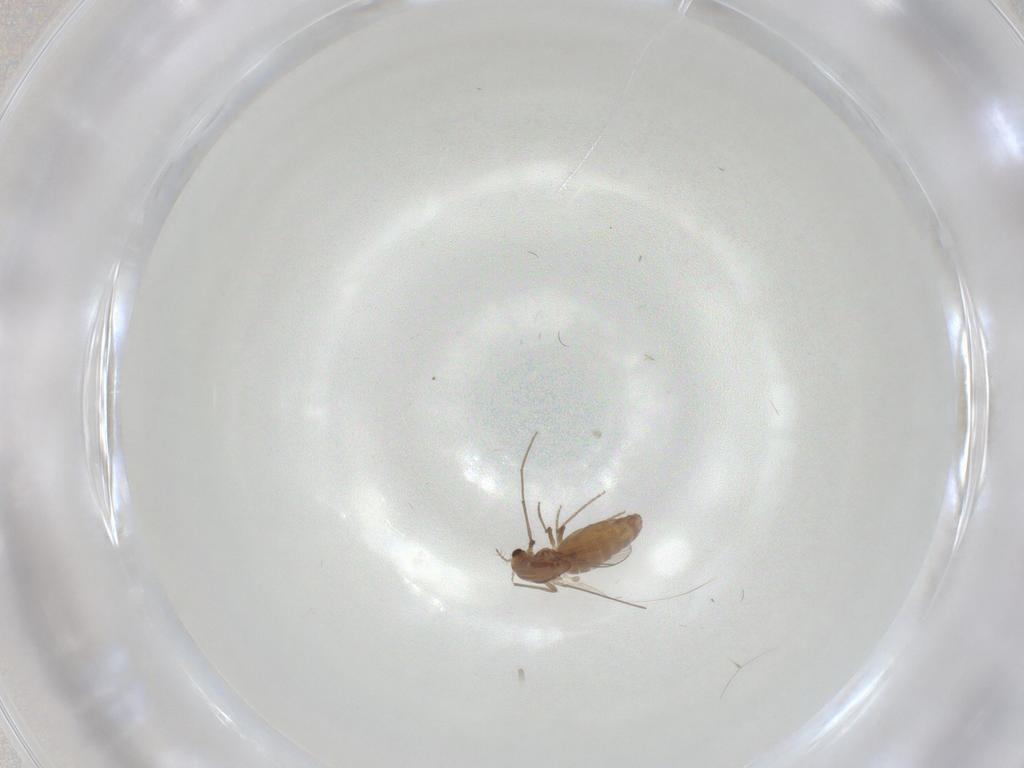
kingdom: Animalia
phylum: Arthropoda
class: Insecta
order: Diptera
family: Chironomidae
